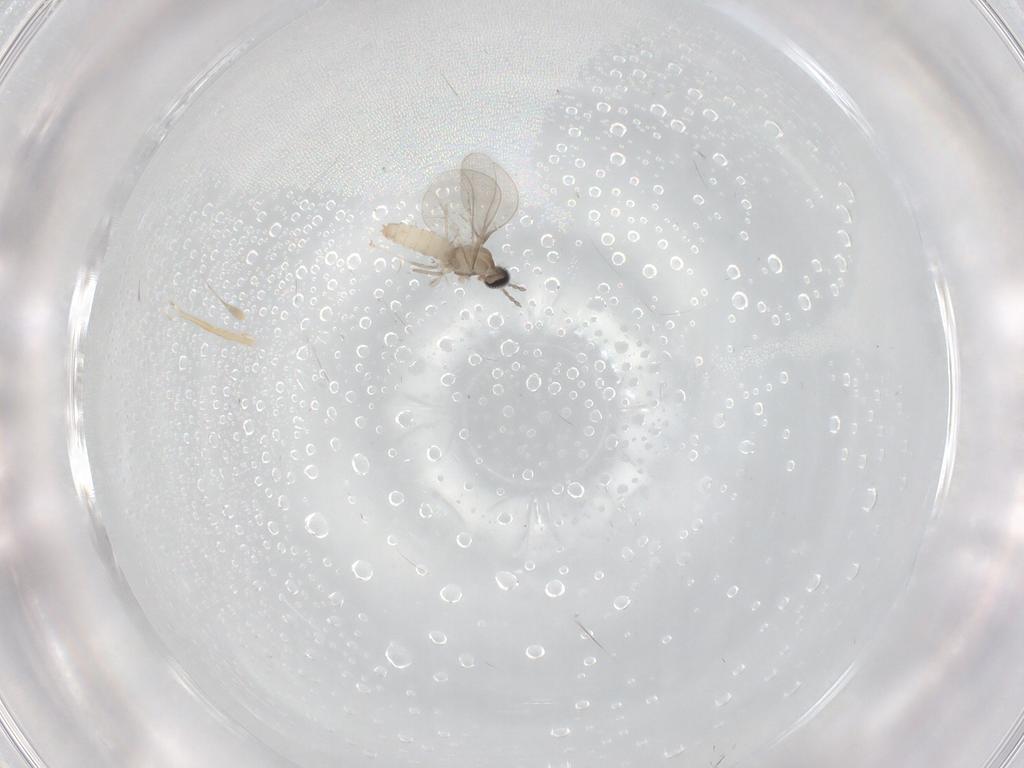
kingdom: Animalia
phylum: Arthropoda
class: Insecta
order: Diptera
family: Cecidomyiidae
